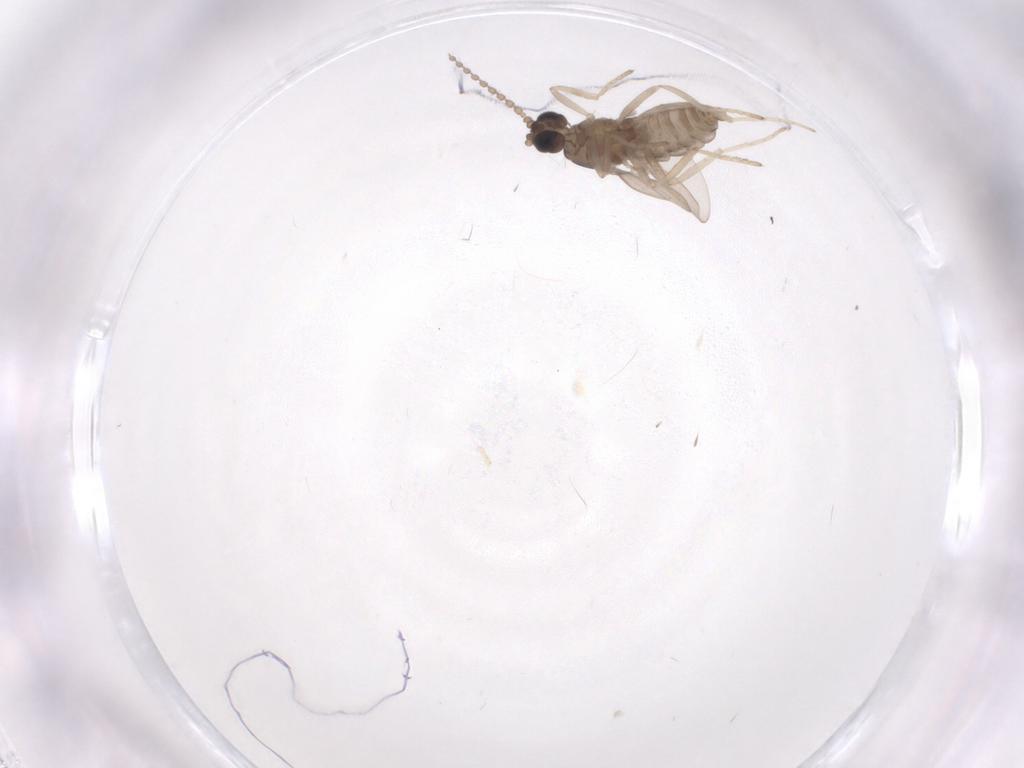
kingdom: Animalia
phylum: Arthropoda
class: Insecta
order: Diptera
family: Cecidomyiidae
